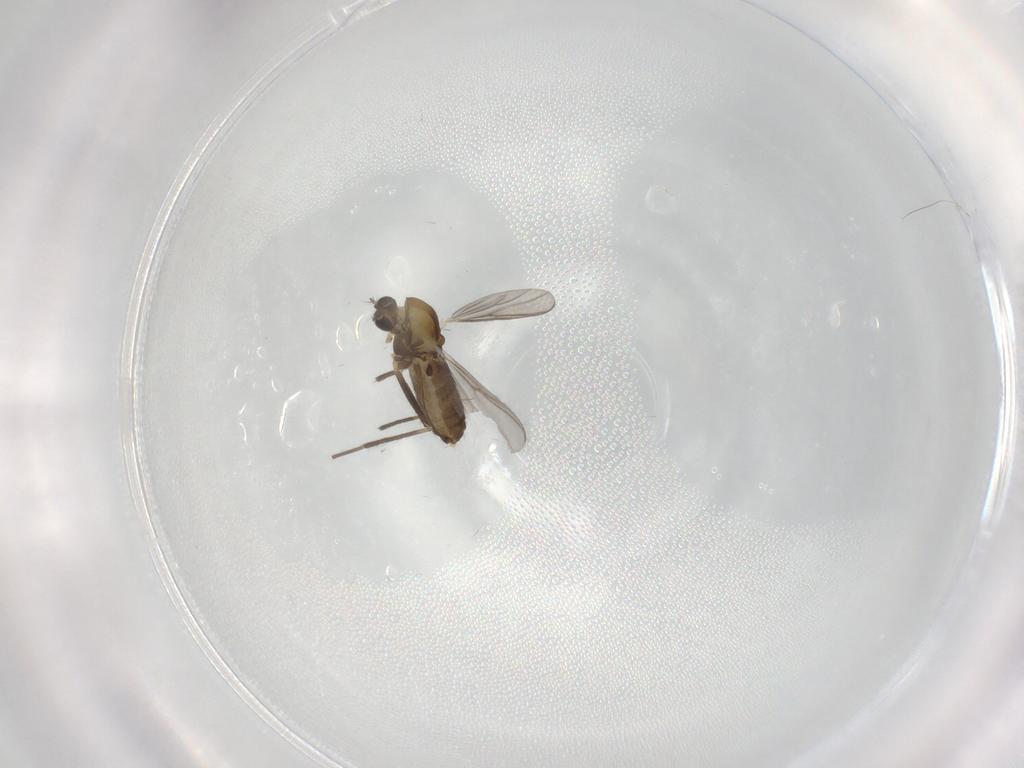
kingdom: Animalia
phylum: Arthropoda
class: Insecta
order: Diptera
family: Chironomidae
